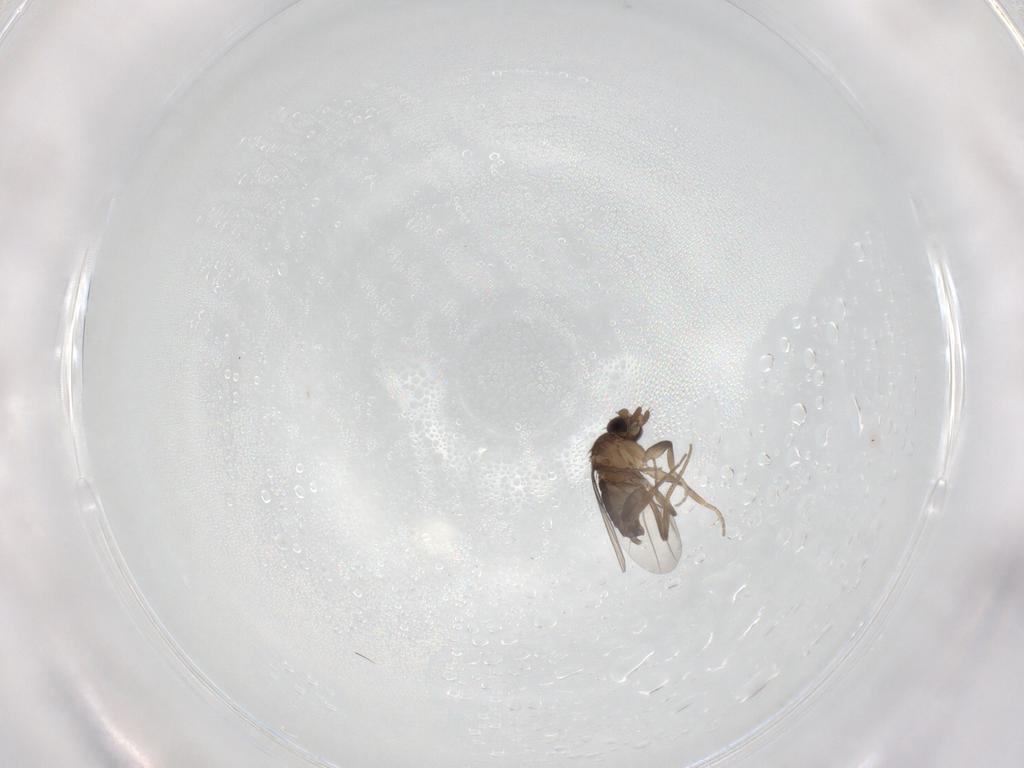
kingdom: Animalia
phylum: Arthropoda
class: Insecta
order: Diptera
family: Phoridae
